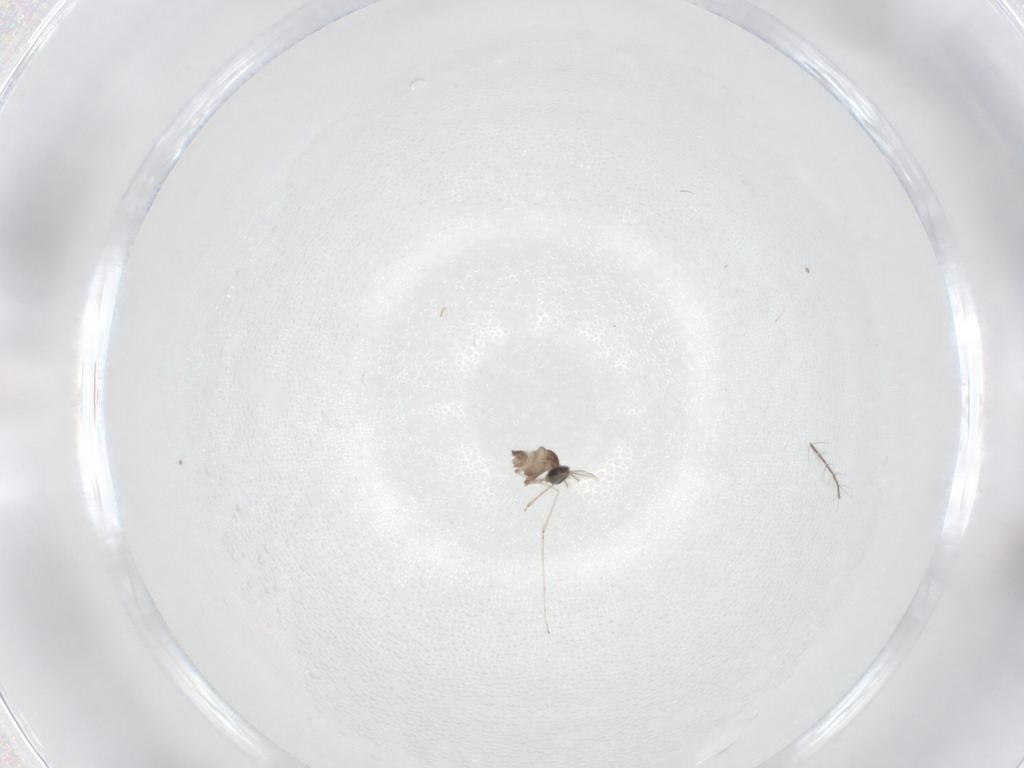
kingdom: Animalia
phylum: Arthropoda
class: Insecta
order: Diptera
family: Cecidomyiidae
